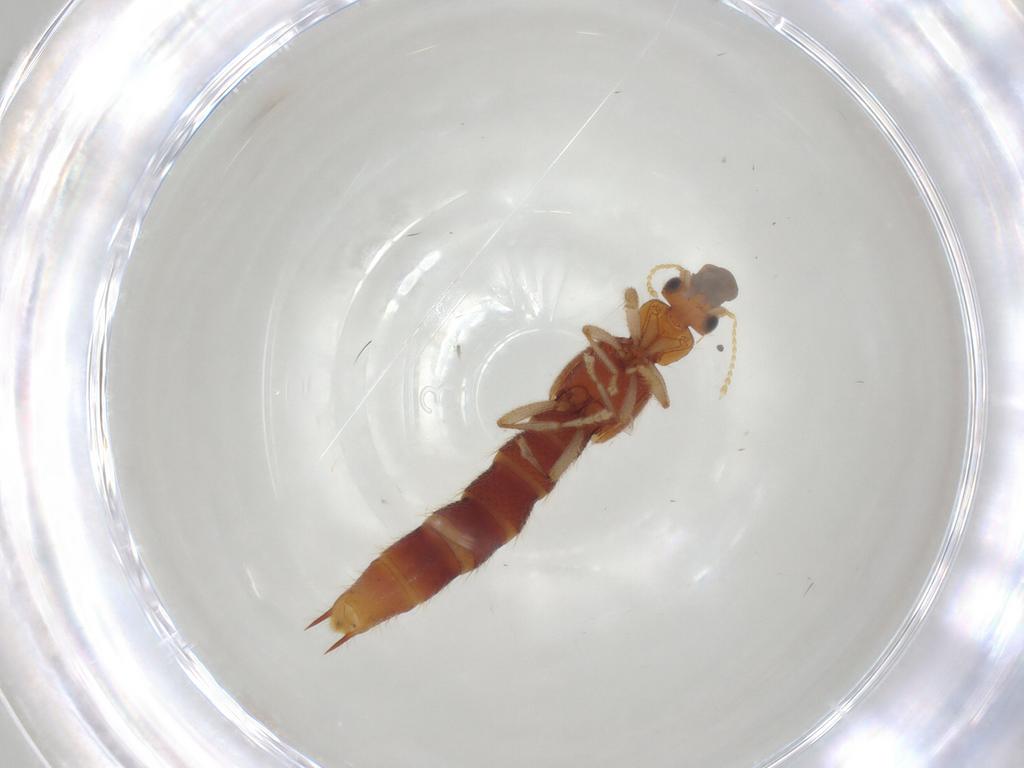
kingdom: Animalia
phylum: Arthropoda
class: Insecta
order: Coleoptera
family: Staphylinidae
